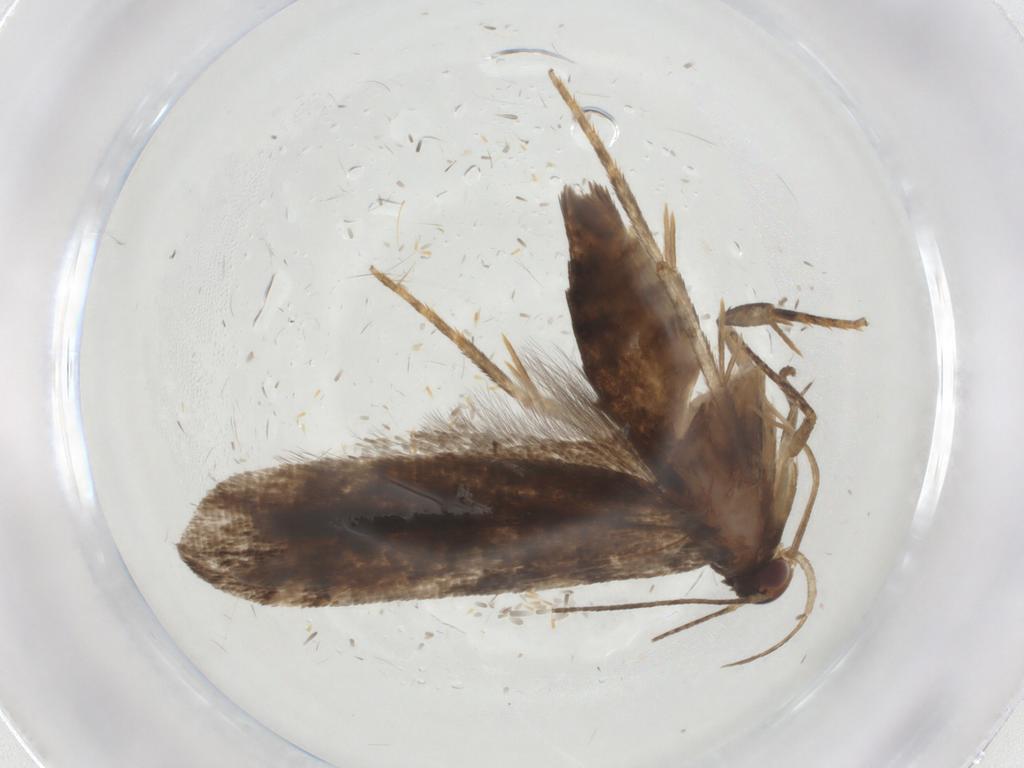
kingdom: Animalia
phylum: Arthropoda
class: Insecta
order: Lepidoptera
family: Gelechiidae
